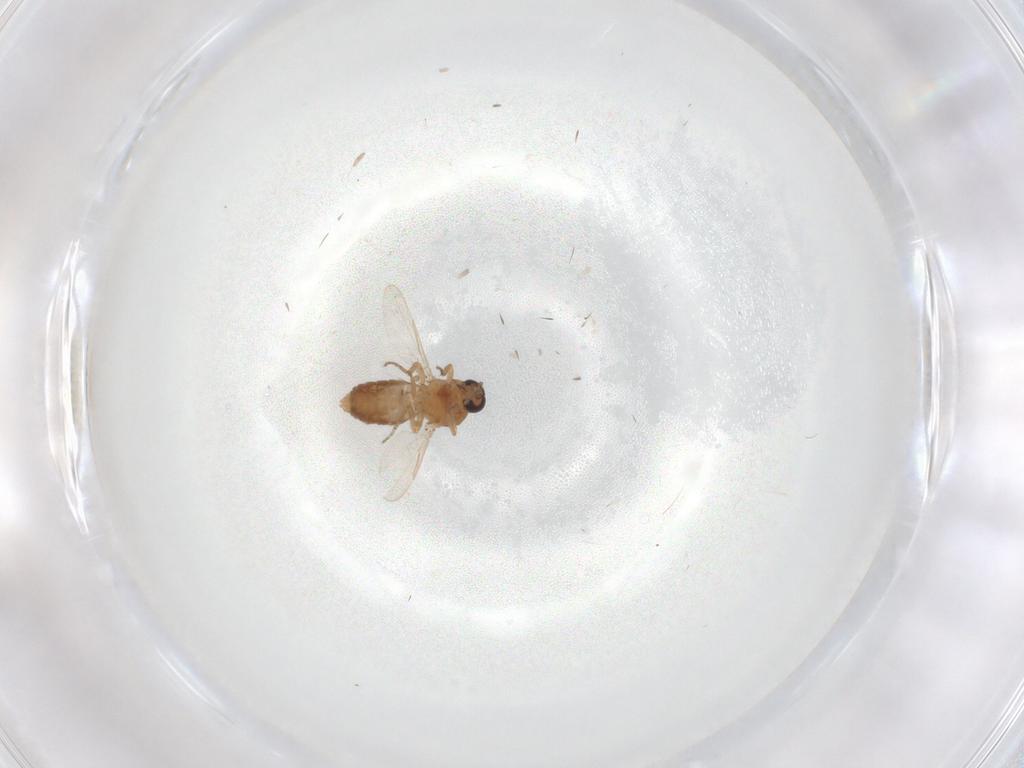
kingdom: Animalia
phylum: Arthropoda
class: Insecta
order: Diptera
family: Ceratopogonidae
